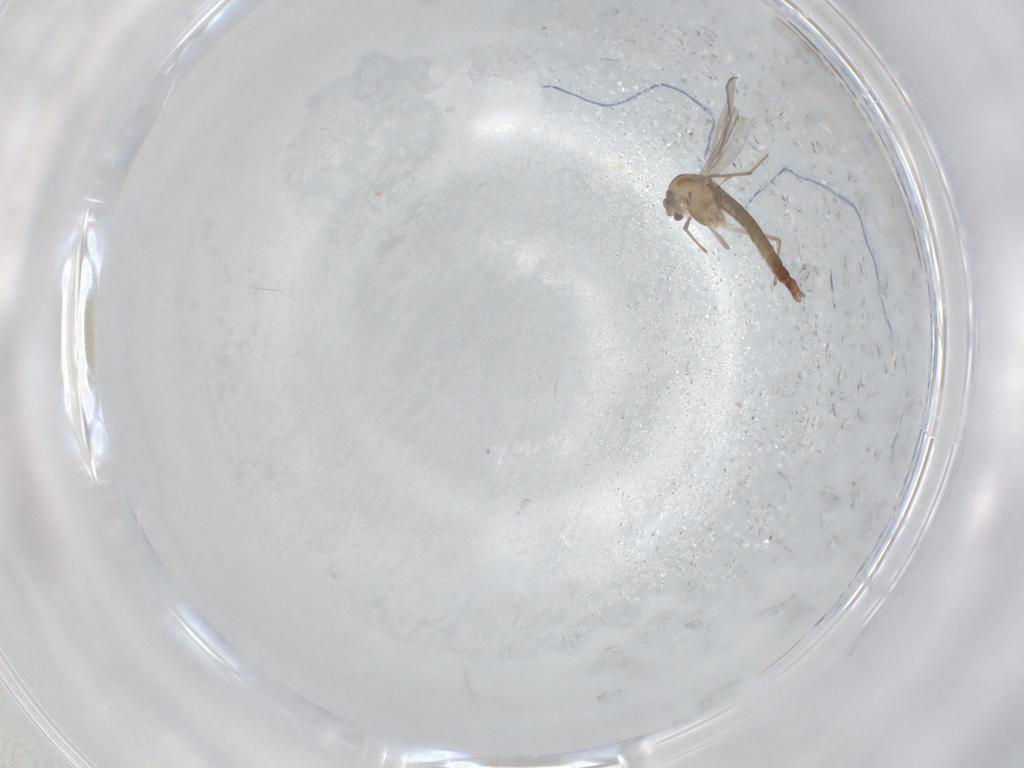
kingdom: Animalia
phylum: Arthropoda
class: Insecta
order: Diptera
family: Chironomidae
